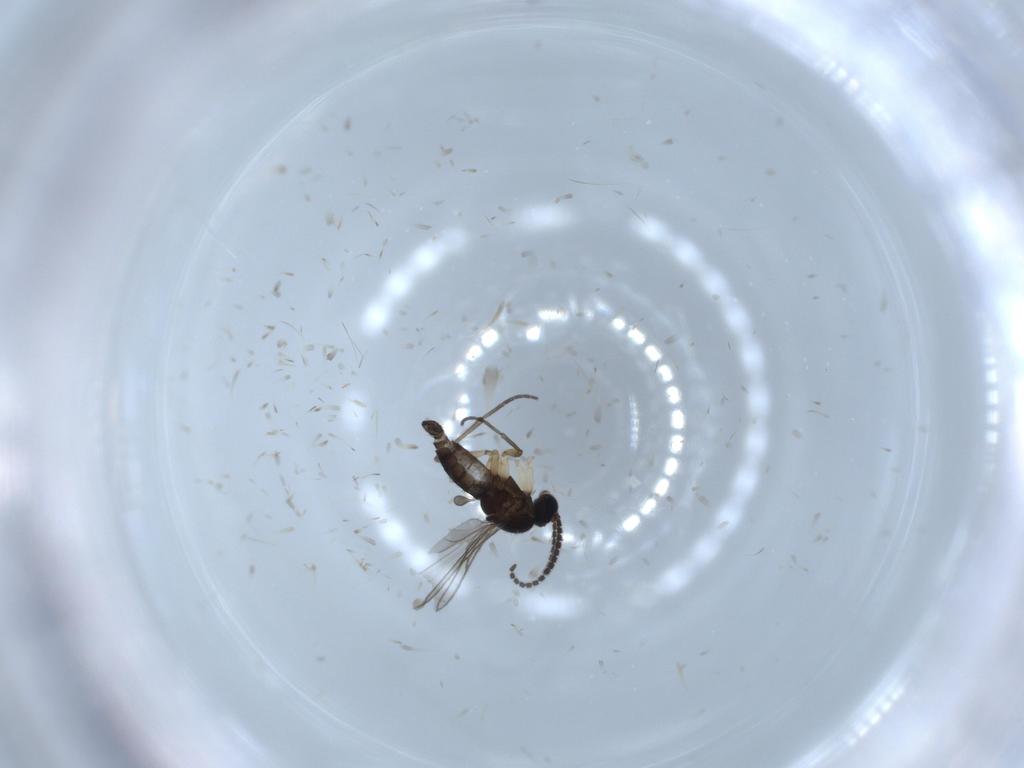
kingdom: Animalia
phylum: Arthropoda
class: Insecta
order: Diptera
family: Sciaridae
